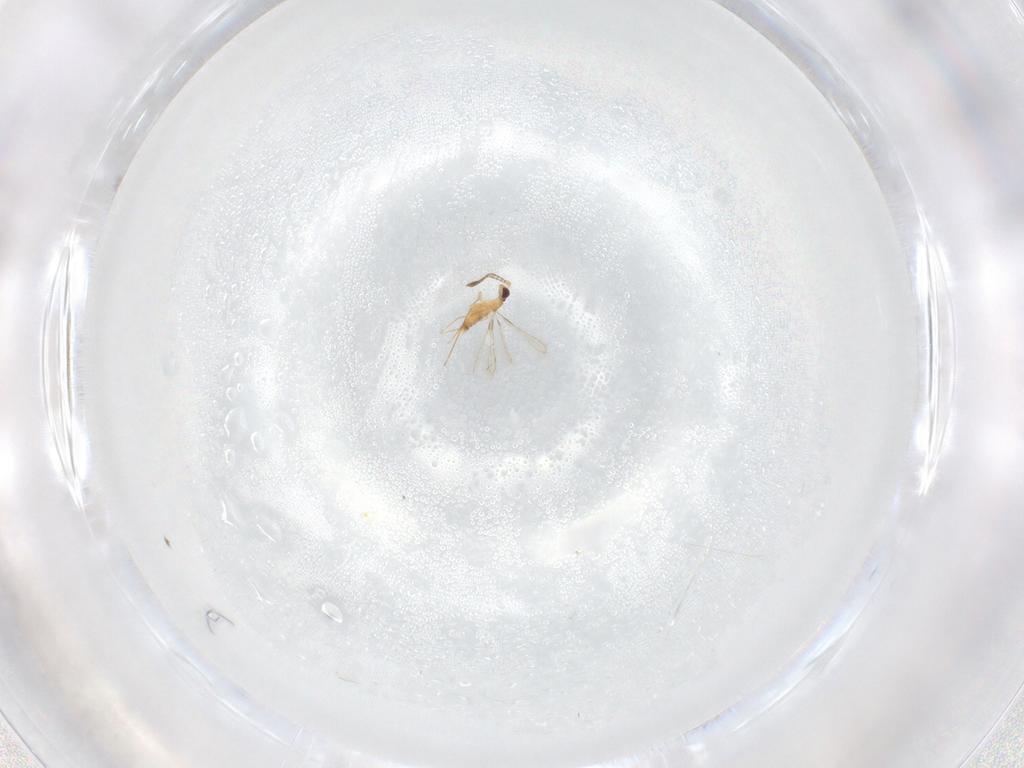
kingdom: Animalia
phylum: Arthropoda
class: Insecta
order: Hymenoptera
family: Mymaridae
